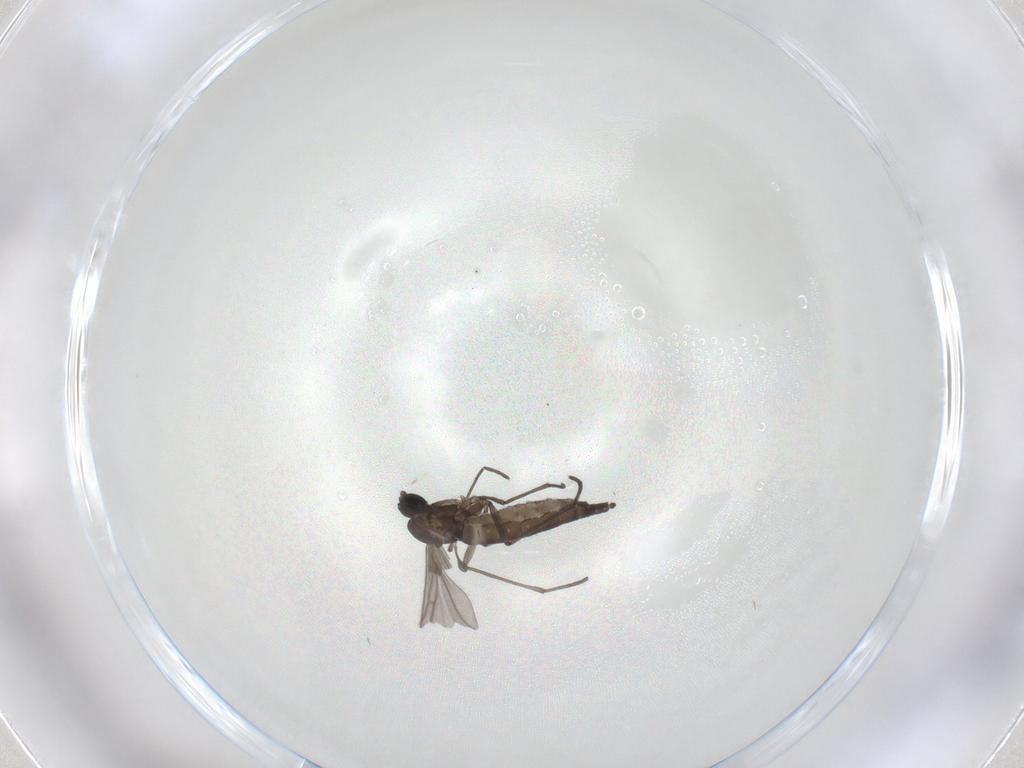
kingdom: Animalia
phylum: Arthropoda
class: Insecta
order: Diptera
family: Sciaridae
